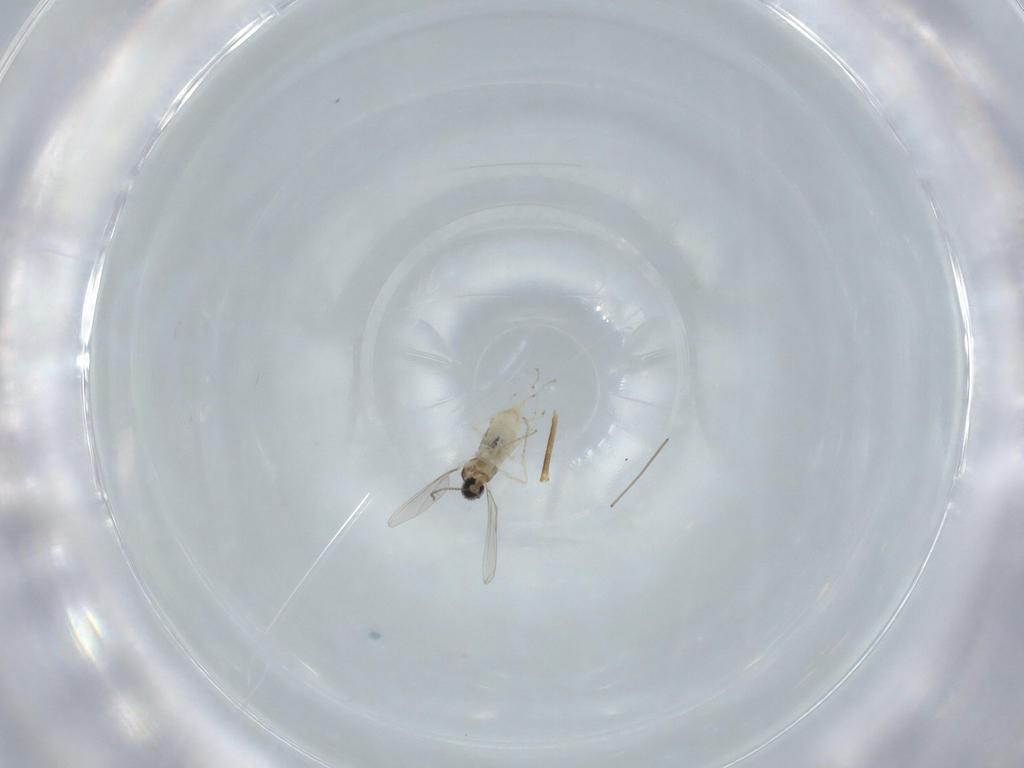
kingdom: Animalia
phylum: Arthropoda
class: Insecta
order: Diptera
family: Cecidomyiidae
